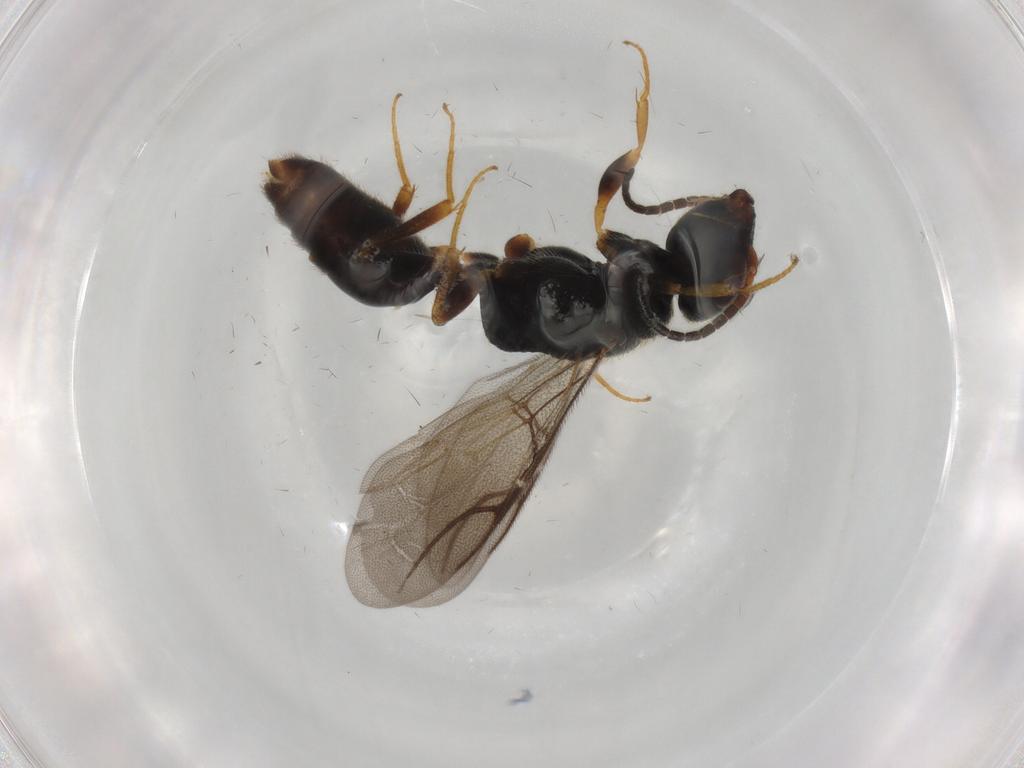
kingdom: Animalia
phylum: Arthropoda
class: Insecta
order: Hymenoptera
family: Bethylidae
